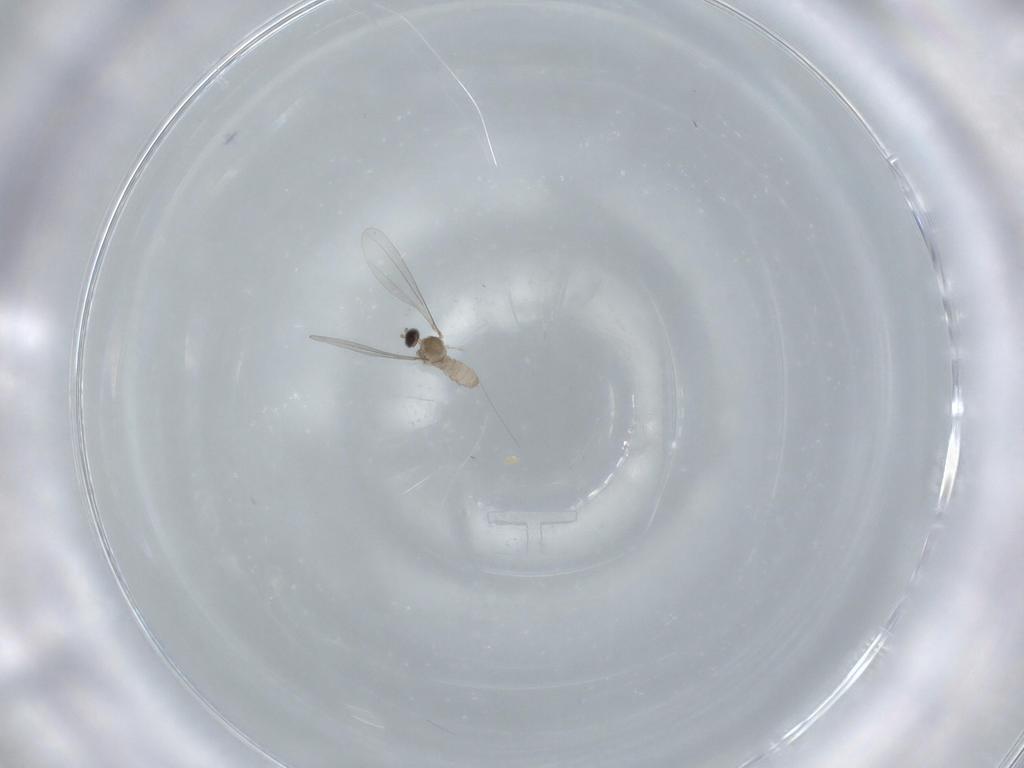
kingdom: Animalia
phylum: Arthropoda
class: Insecta
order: Diptera
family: Cecidomyiidae
